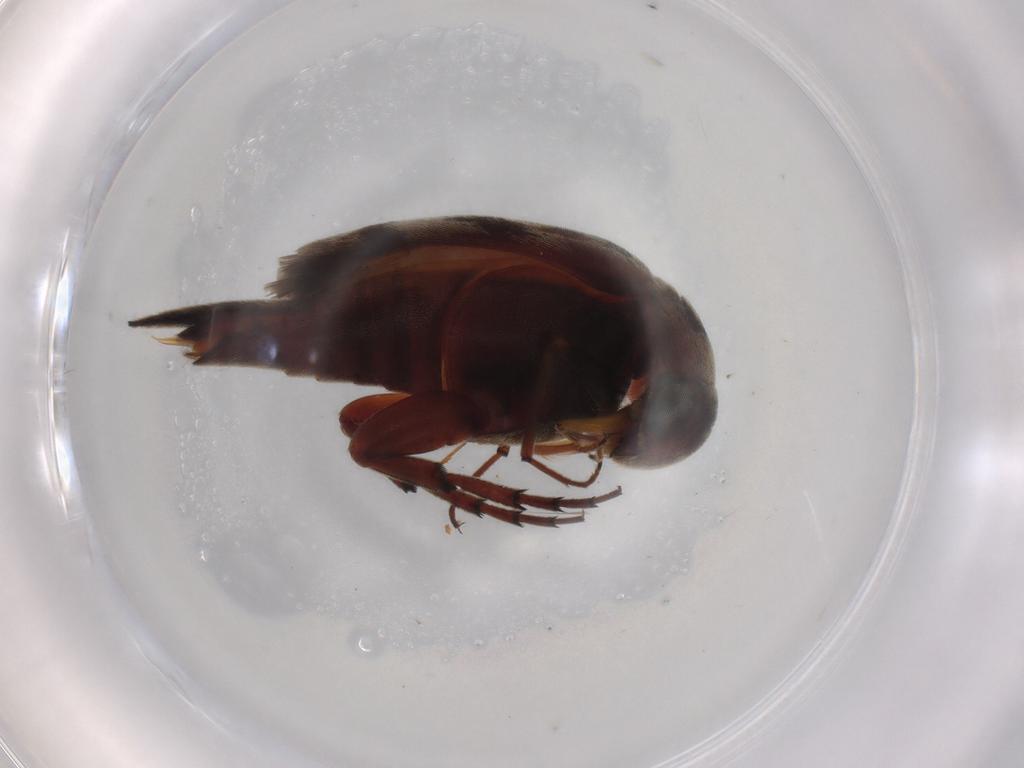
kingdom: Animalia
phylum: Arthropoda
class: Insecta
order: Coleoptera
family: Mordellidae
